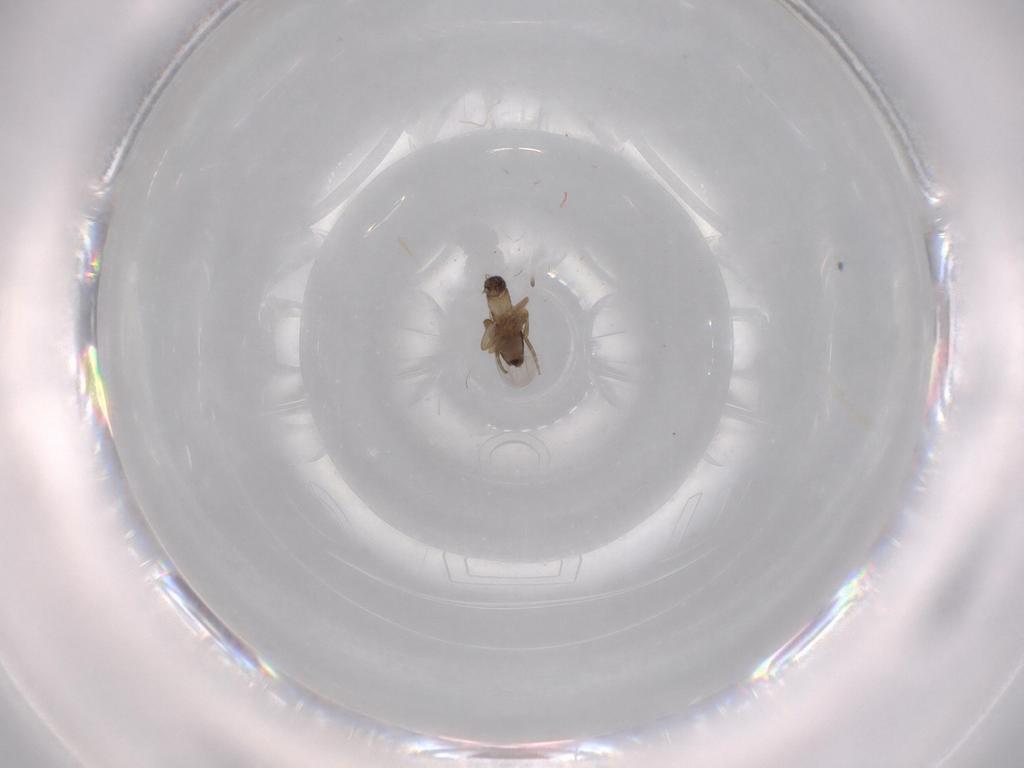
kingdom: Animalia
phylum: Arthropoda
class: Insecta
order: Diptera
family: Phoridae
